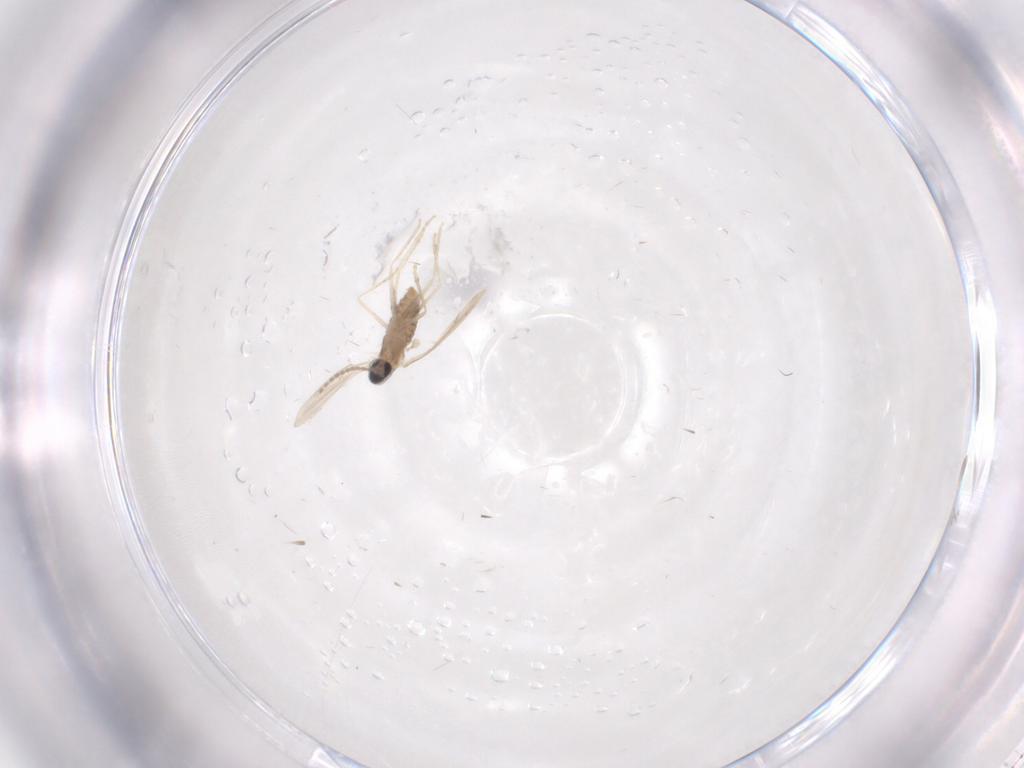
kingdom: Animalia
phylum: Arthropoda
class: Insecta
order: Diptera
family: Cecidomyiidae
